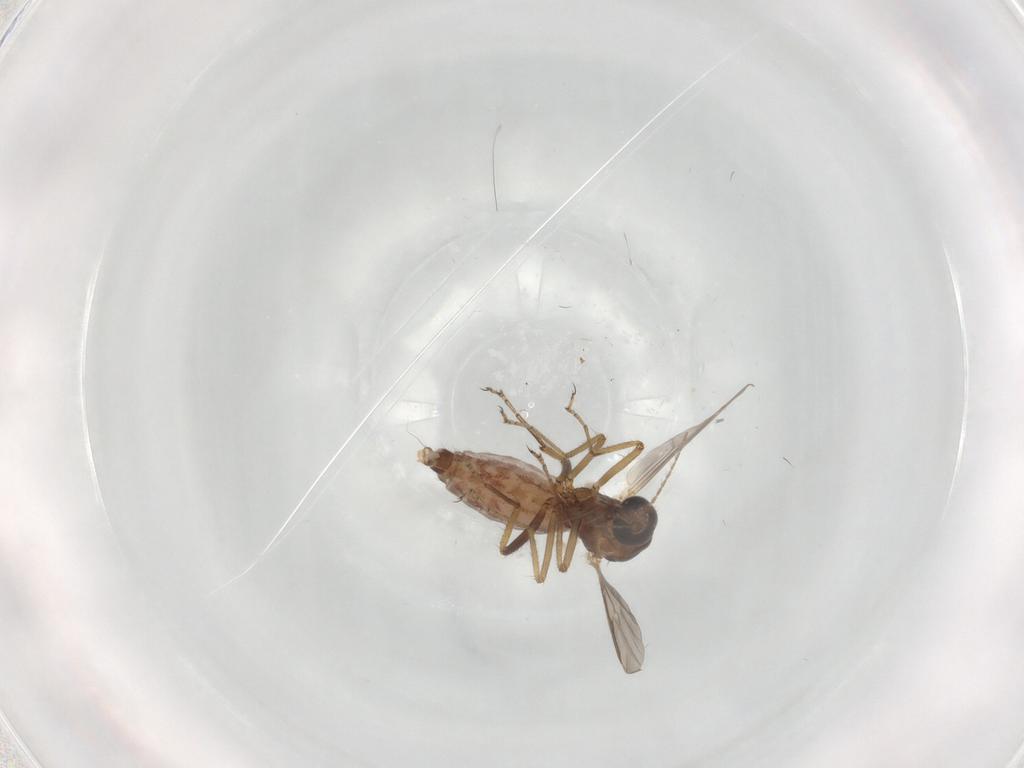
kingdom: Animalia
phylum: Arthropoda
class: Insecta
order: Diptera
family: Ceratopogonidae
